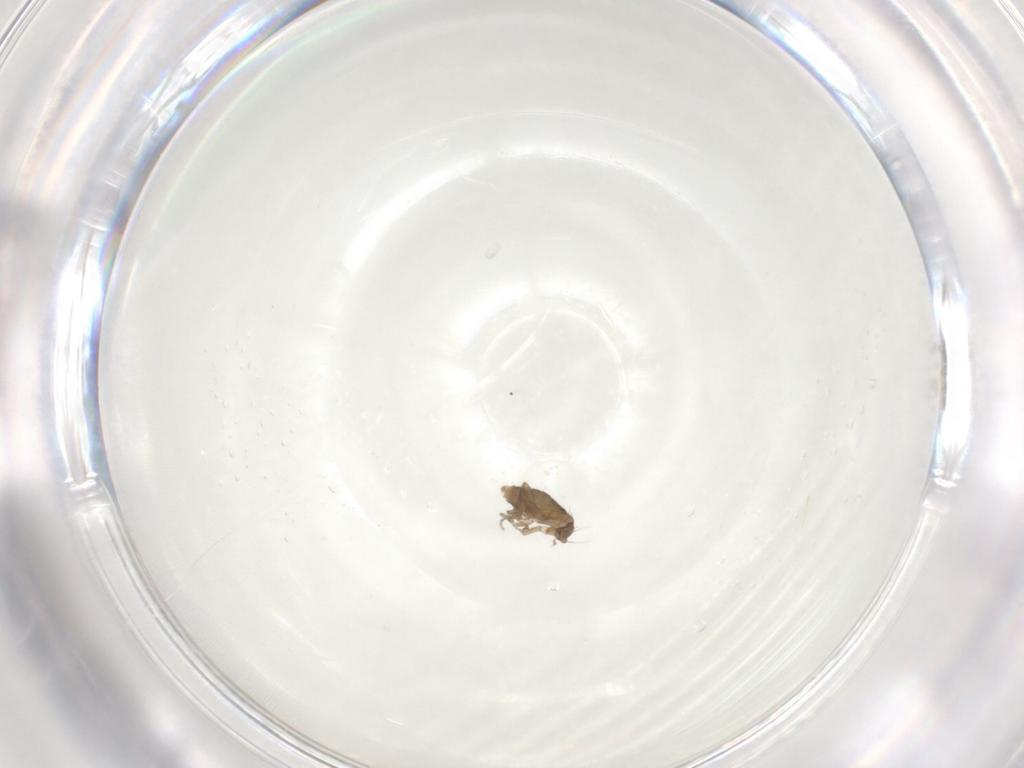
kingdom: Animalia
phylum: Arthropoda
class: Insecta
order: Diptera
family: Phoridae
